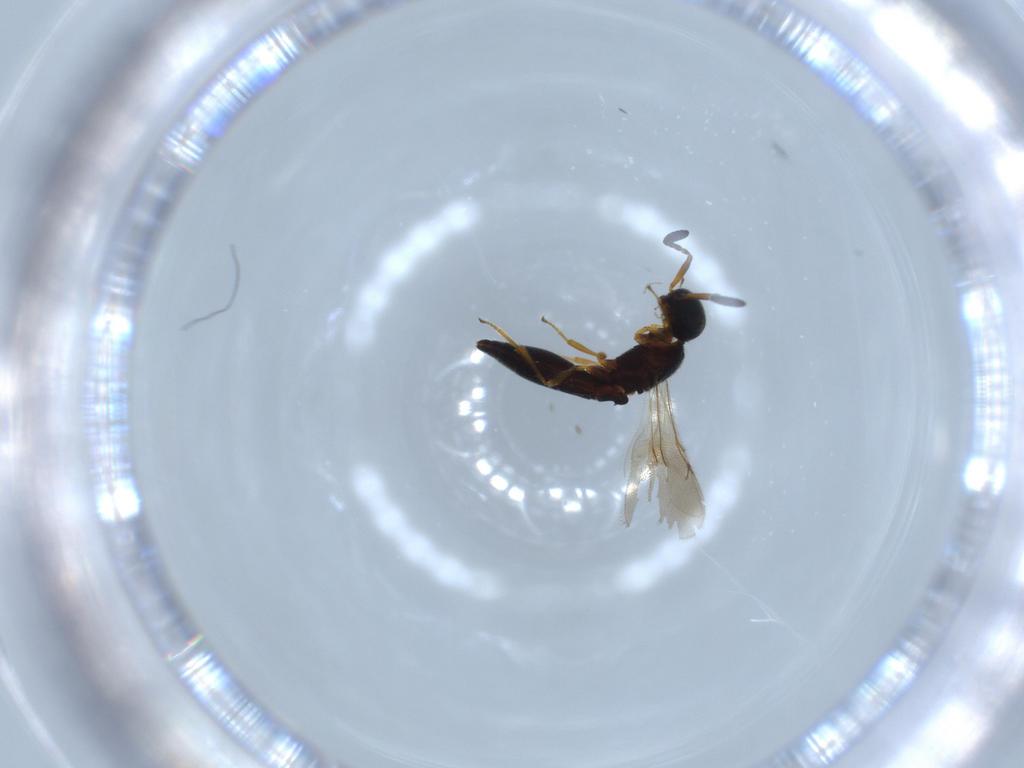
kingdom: Animalia
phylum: Arthropoda
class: Insecta
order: Hymenoptera
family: Scelionidae
